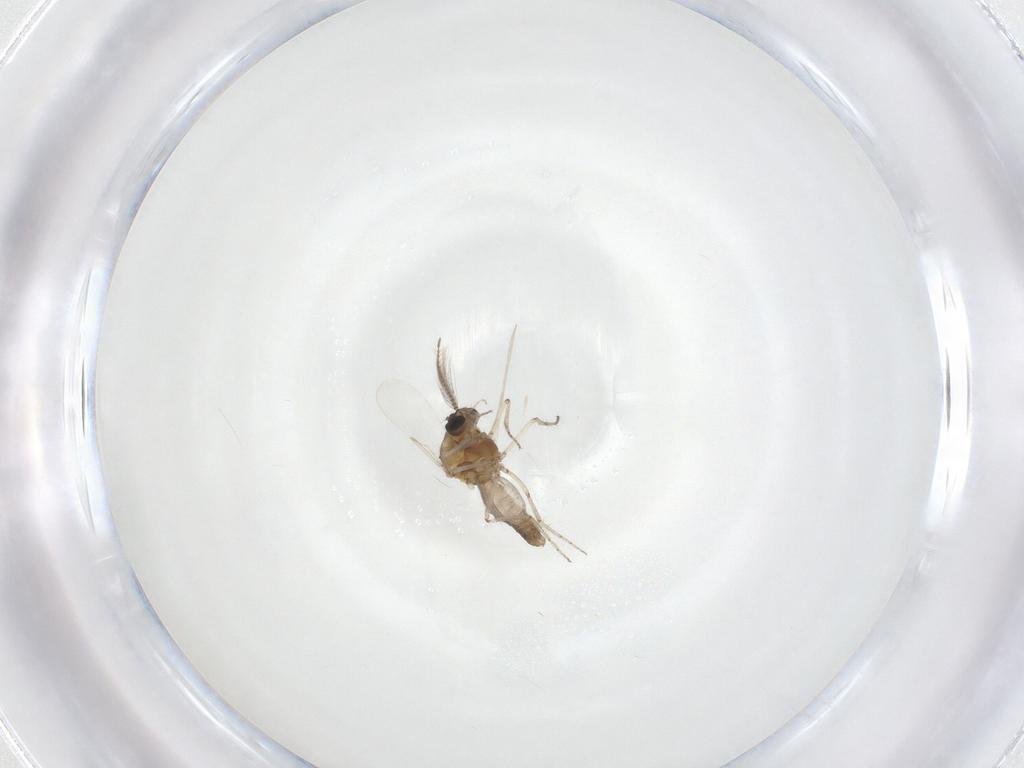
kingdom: Animalia
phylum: Arthropoda
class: Insecta
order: Diptera
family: Ceratopogonidae
